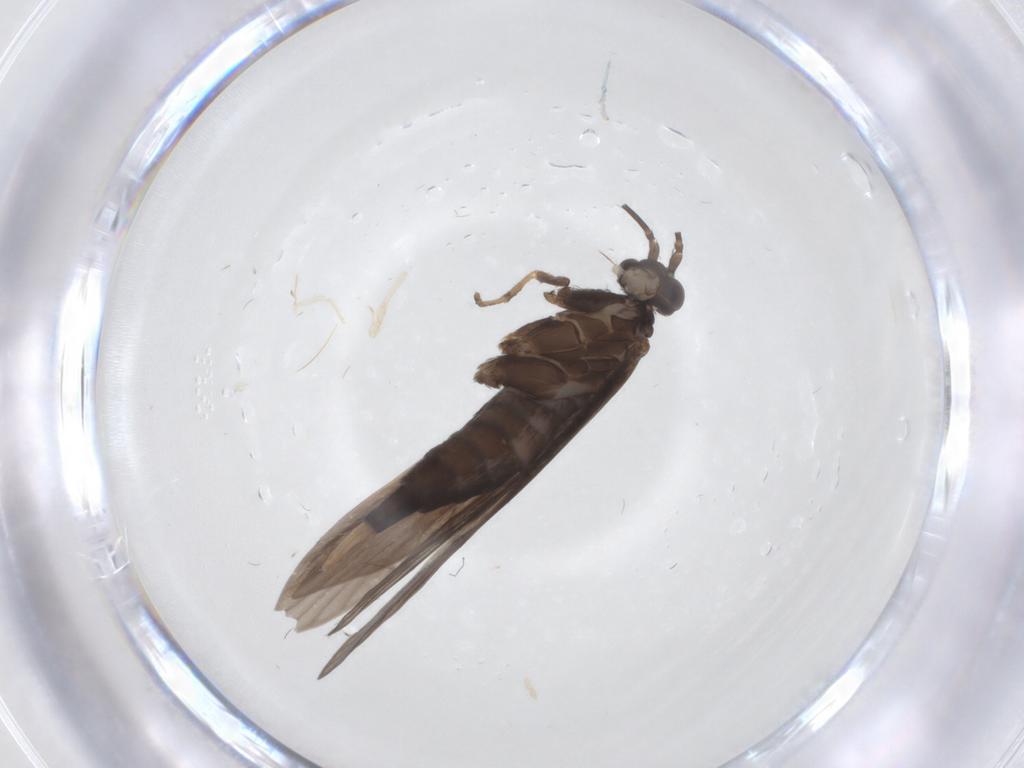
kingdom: Animalia
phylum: Arthropoda
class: Insecta
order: Trichoptera
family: Xiphocentronidae
